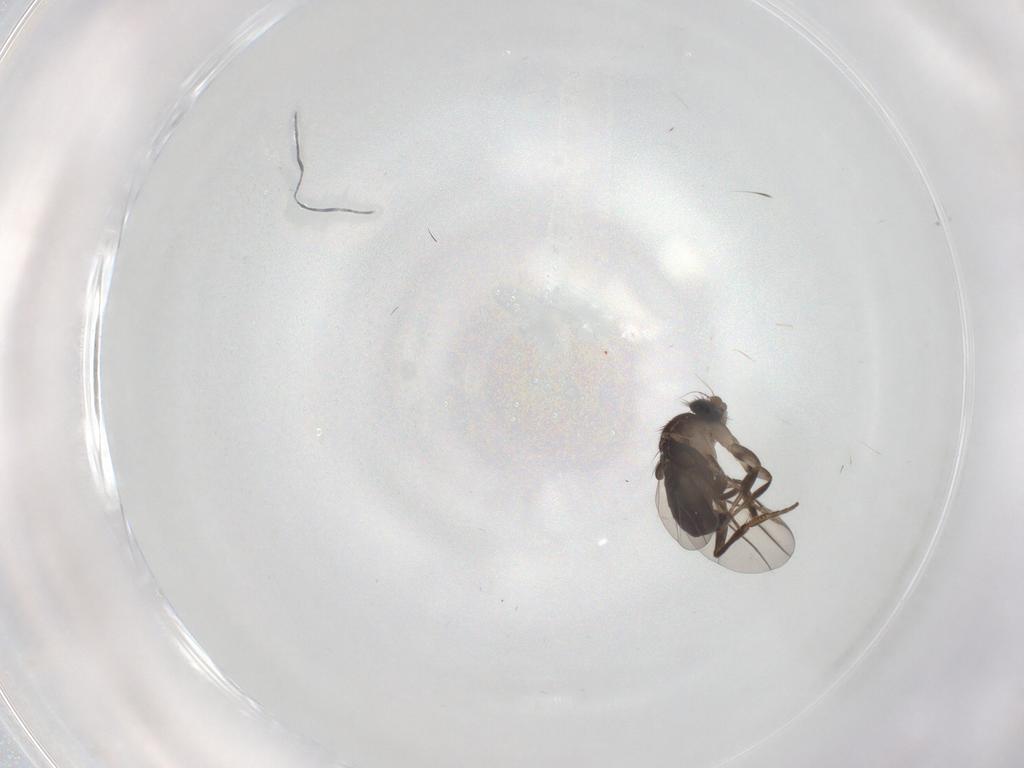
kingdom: Animalia
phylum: Arthropoda
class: Insecta
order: Diptera
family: Phoridae
